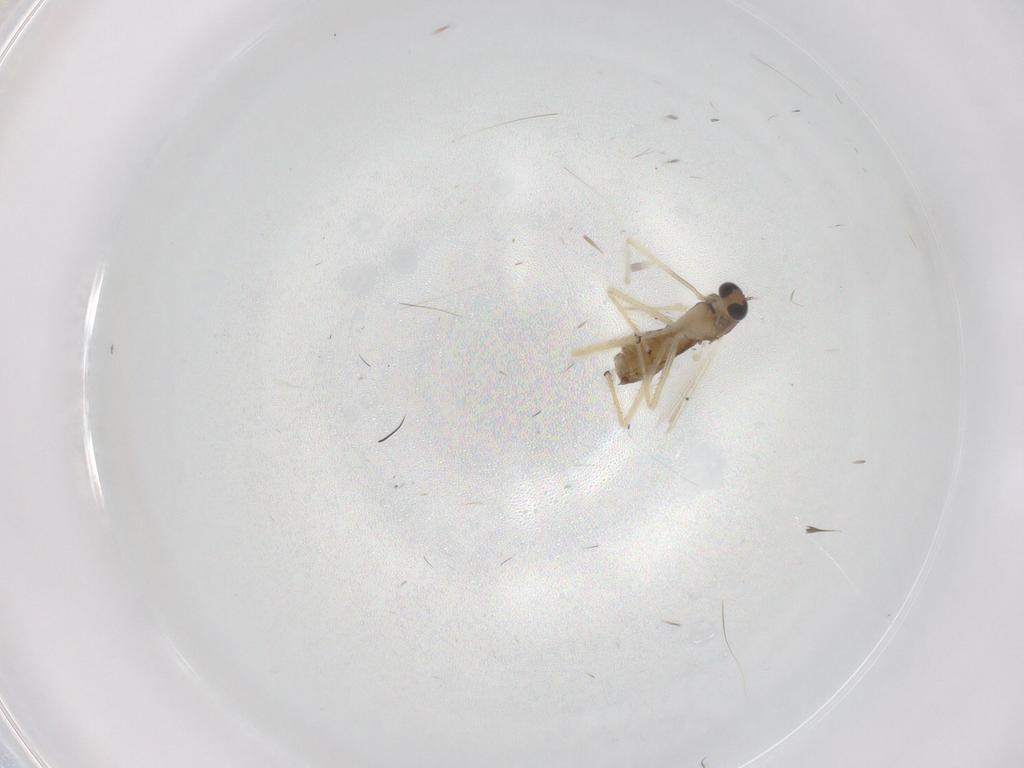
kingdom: Animalia
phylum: Arthropoda
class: Insecta
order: Diptera
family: Chironomidae
